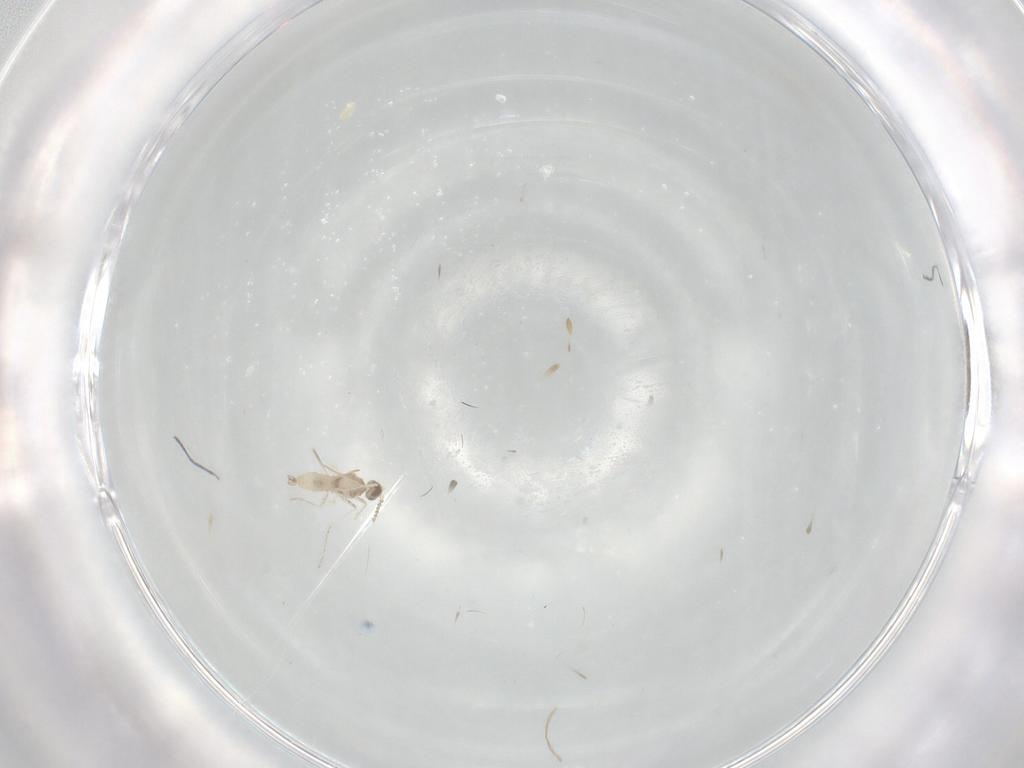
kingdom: Animalia
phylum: Arthropoda
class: Insecta
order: Diptera
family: Chironomidae
